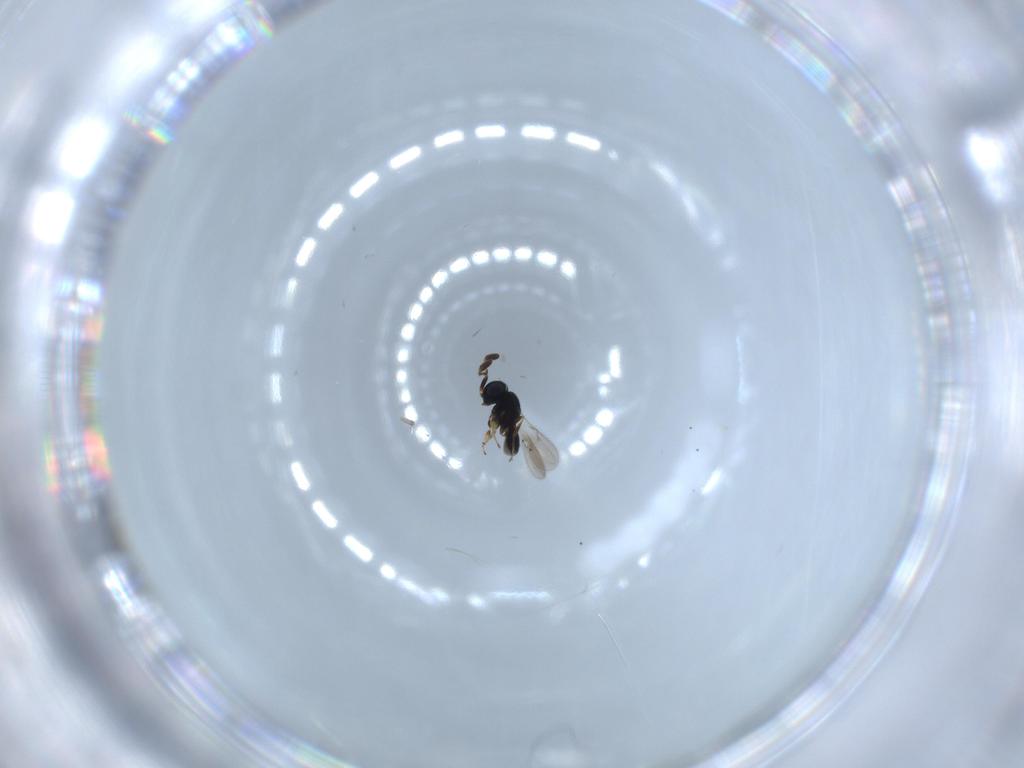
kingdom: Animalia
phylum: Arthropoda
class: Insecta
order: Hymenoptera
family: Scelionidae
